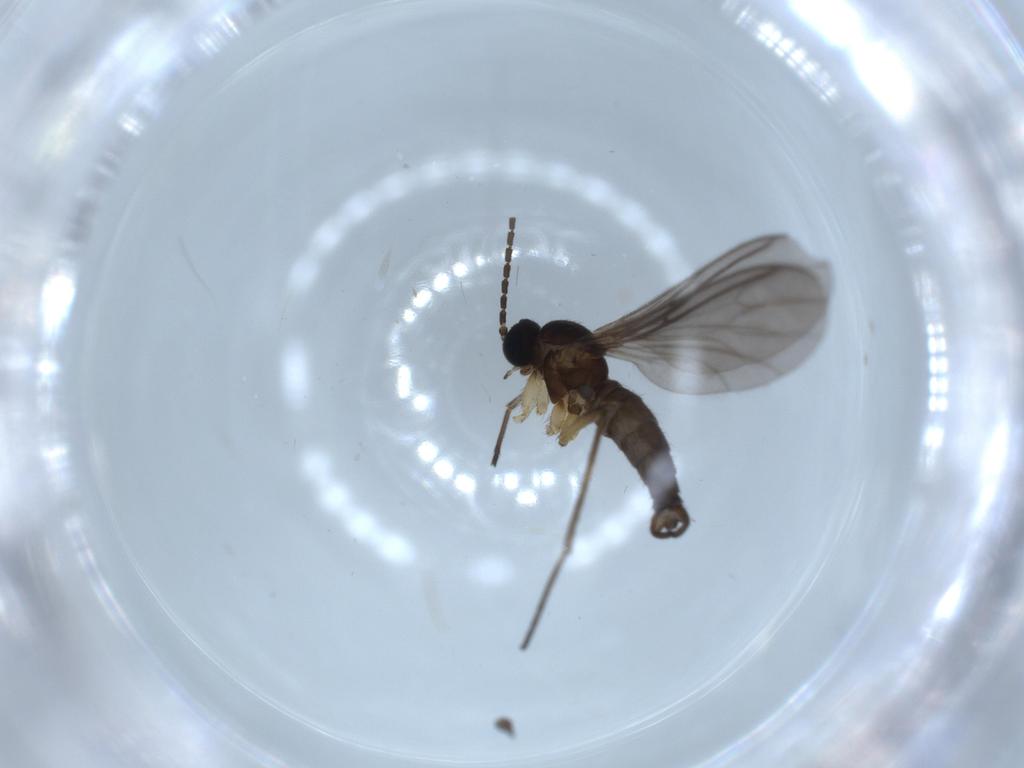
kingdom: Animalia
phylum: Arthropoda
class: Insecta
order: Diptera
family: Sciaridae
